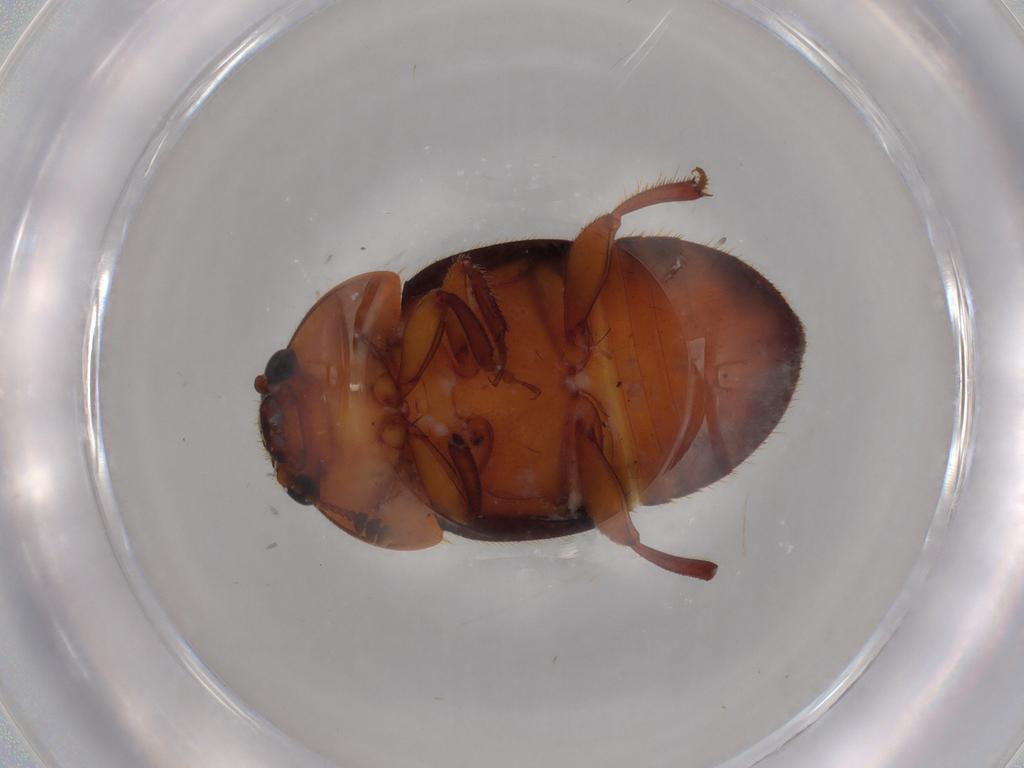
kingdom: Animalia
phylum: Arthropoda
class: Insecta
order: Coleoptera
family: Nitidulidae
